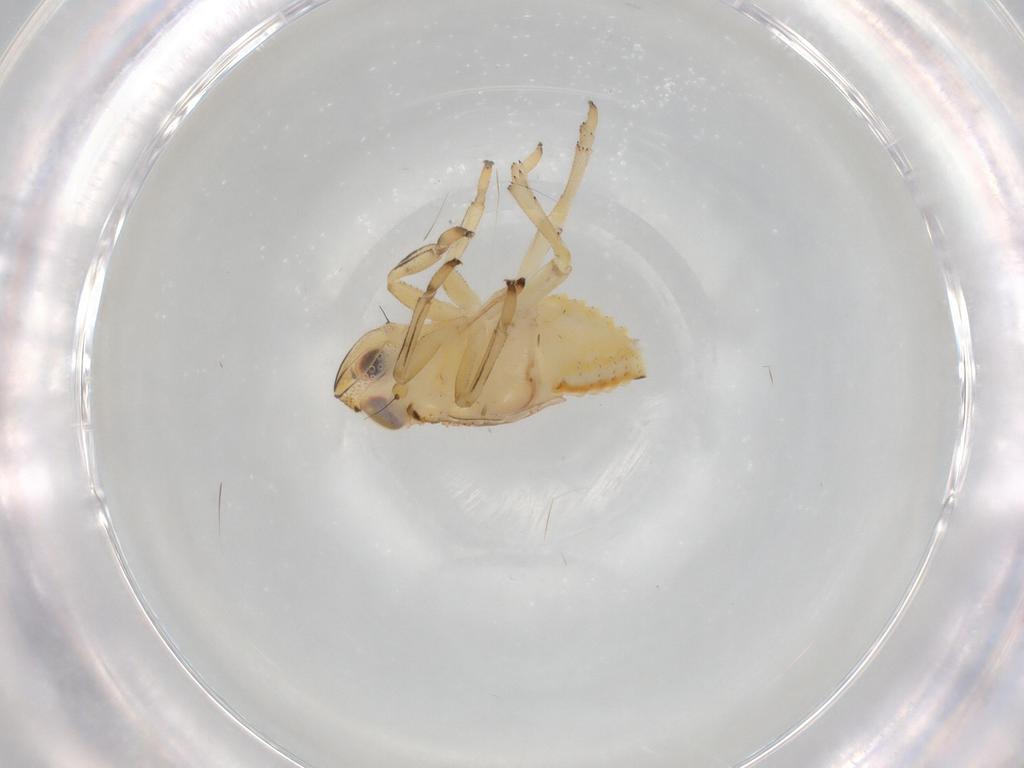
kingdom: Animalia
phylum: Arthropoda
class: Insecta
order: Hemiptera
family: Issidae
